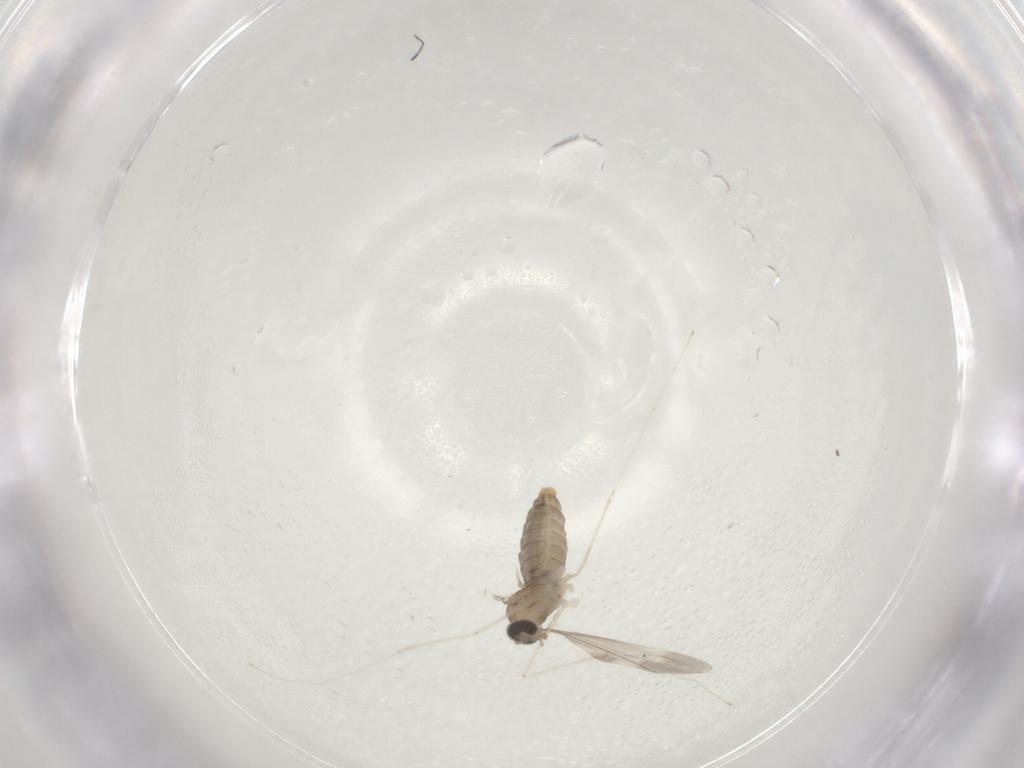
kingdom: Animalia
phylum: Arthropoda
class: Insecta
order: Diptera
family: Cecidomyiidae
